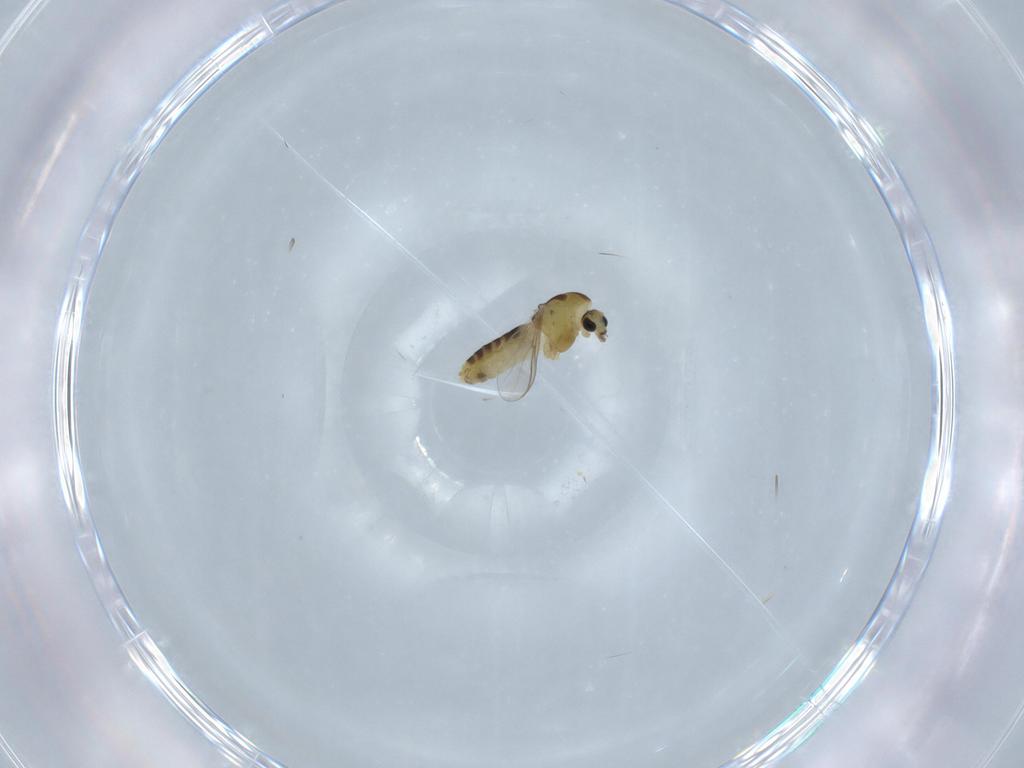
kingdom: Animalia
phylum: Arthropoda
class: Insecta
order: Diptera
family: Chironomidae
